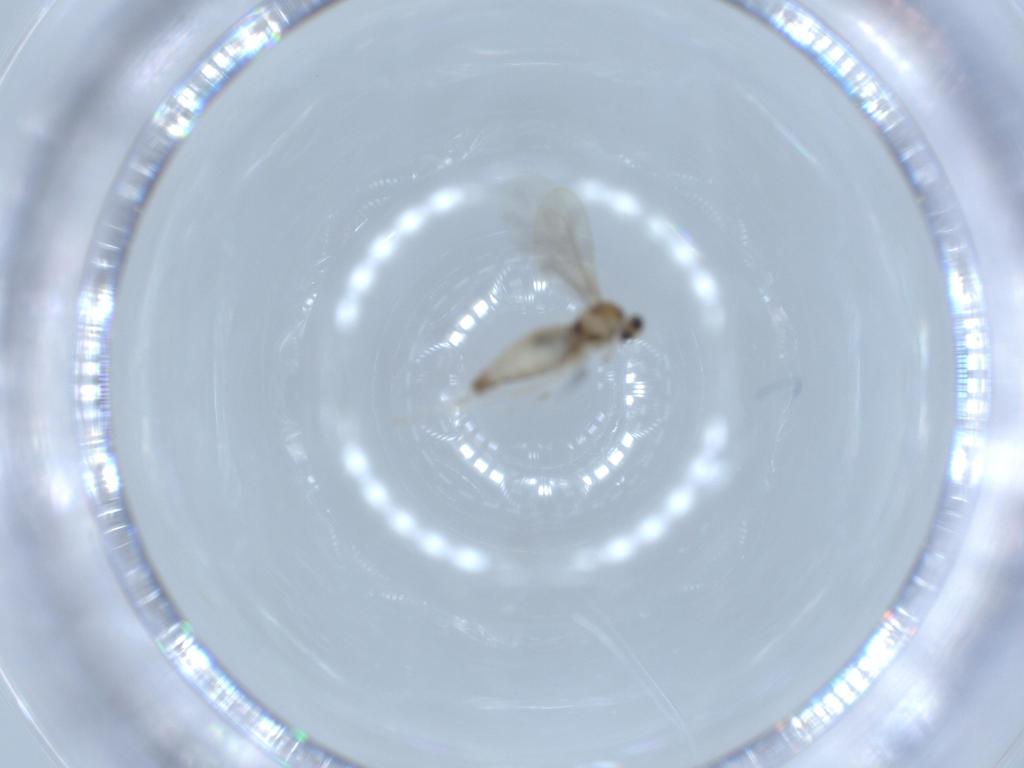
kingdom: Animalia
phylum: Arthropoda
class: Insecta
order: Diptera
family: Cecidomyiidae
